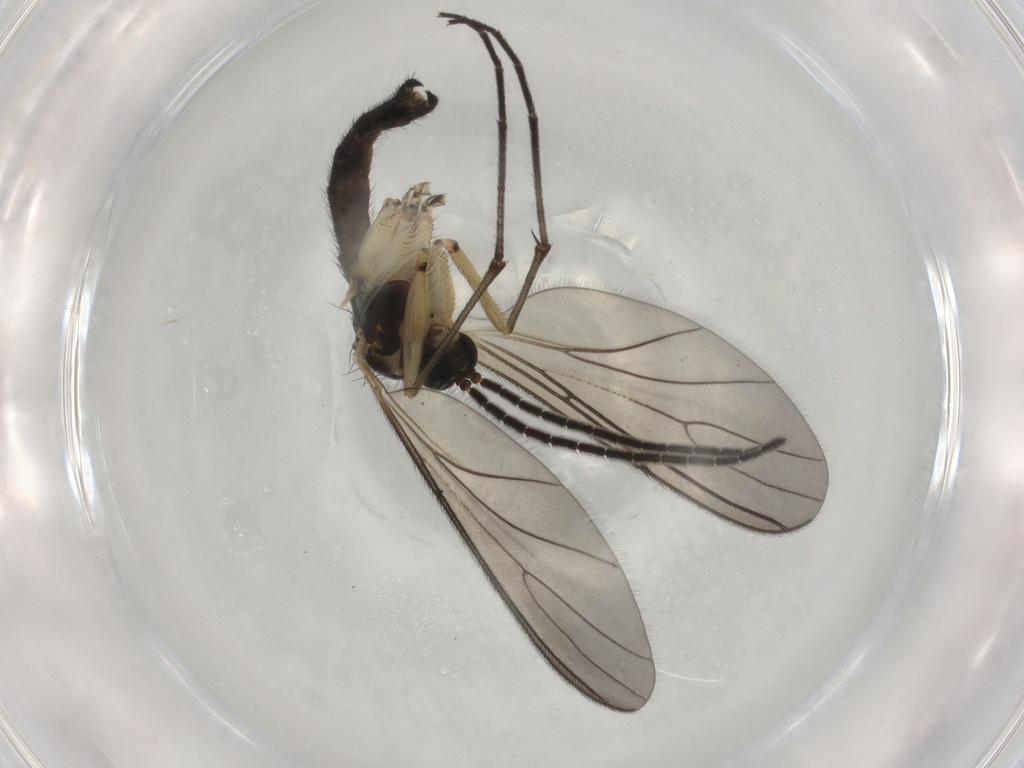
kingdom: Animalia
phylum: Arthropoda
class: Insecta
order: Diptera
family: Sciaridae
